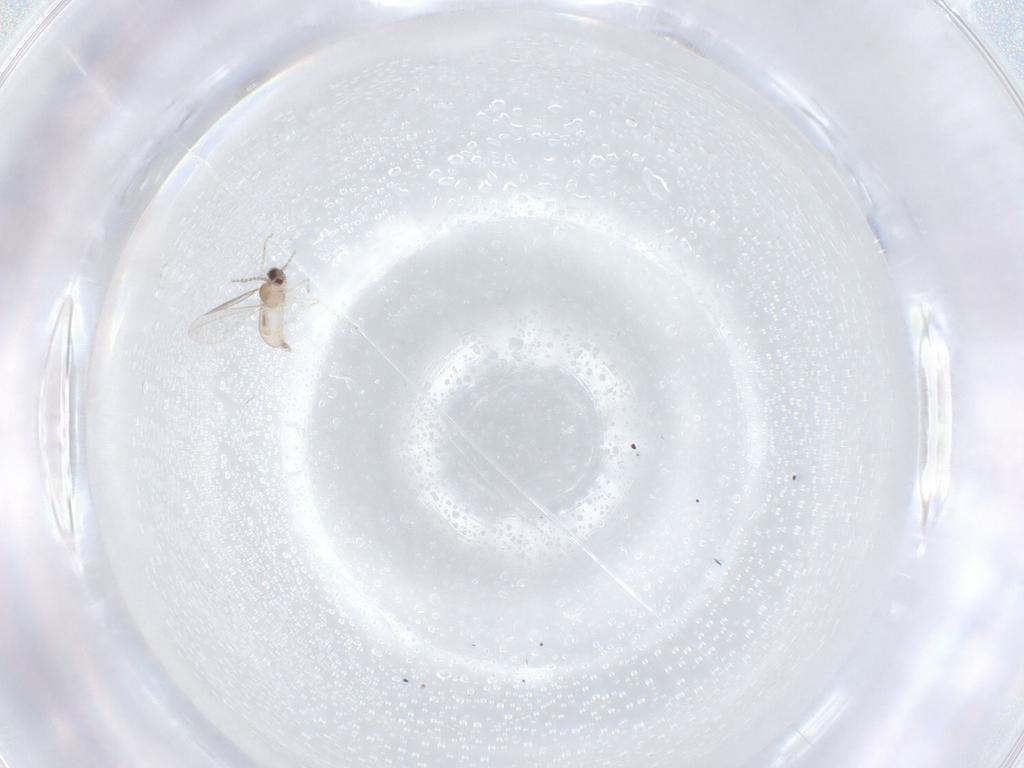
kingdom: Animalia
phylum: Arthropoda
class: Insecta
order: Diptera
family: Cecidomyiidae
